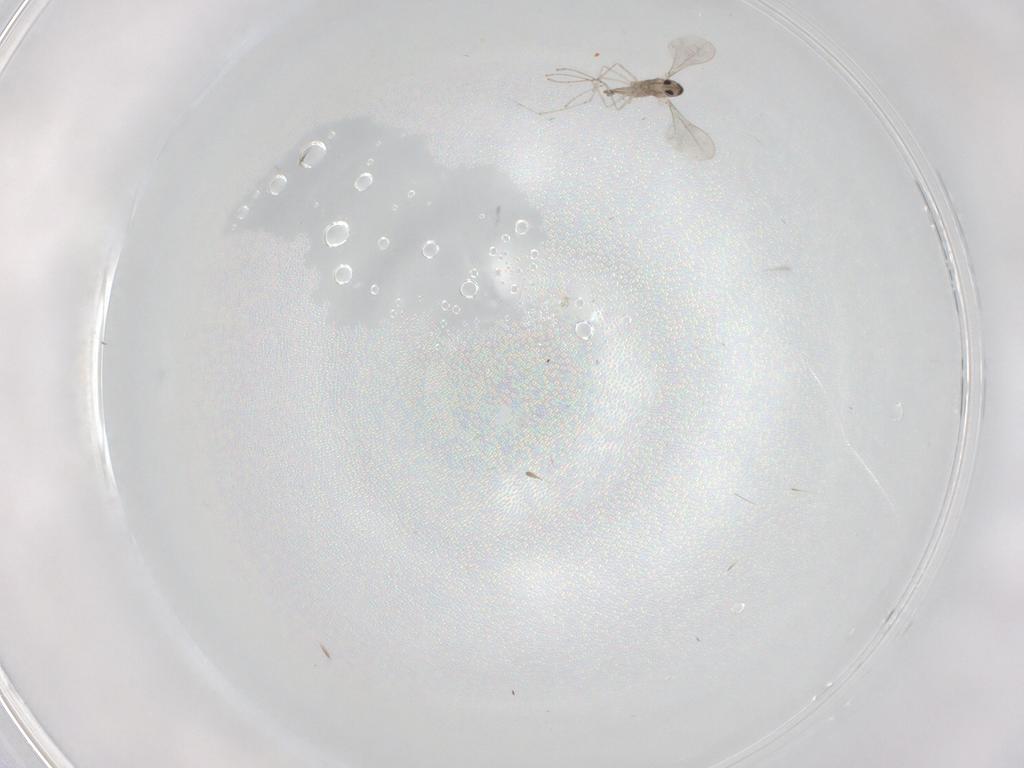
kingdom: Animalia
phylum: Arthropoda
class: Insecta
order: Diptera
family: Cecidomyiidae
